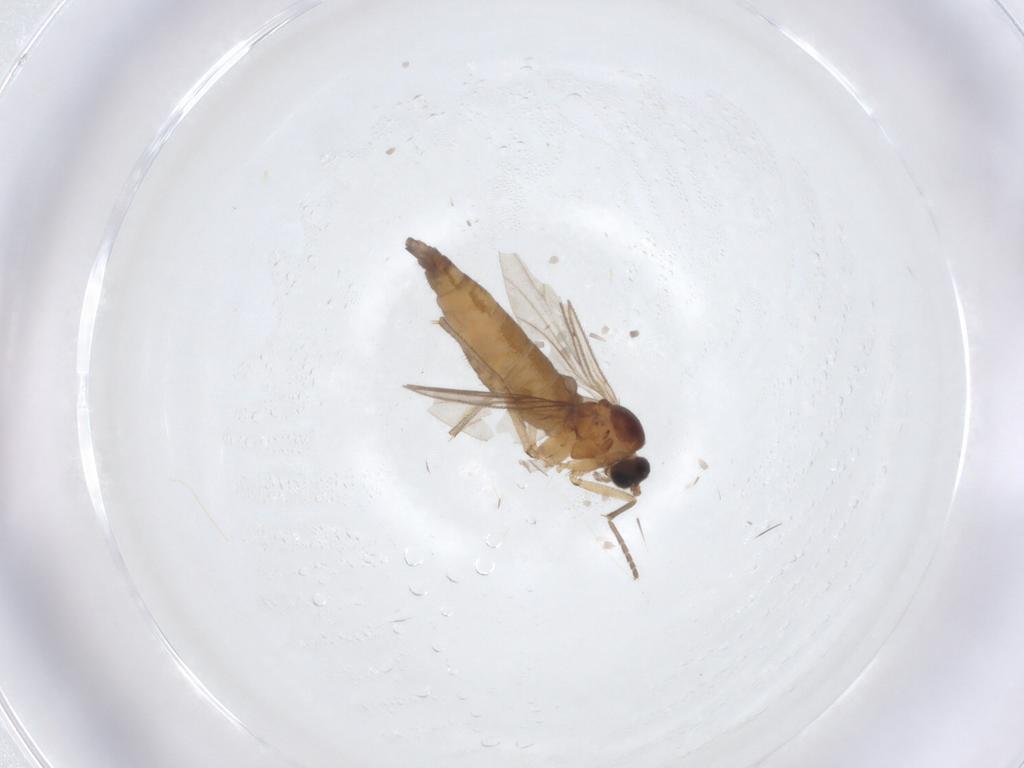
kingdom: Animalia
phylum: Arthropoda
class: Insecta
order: Diptera
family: Sciaridae
